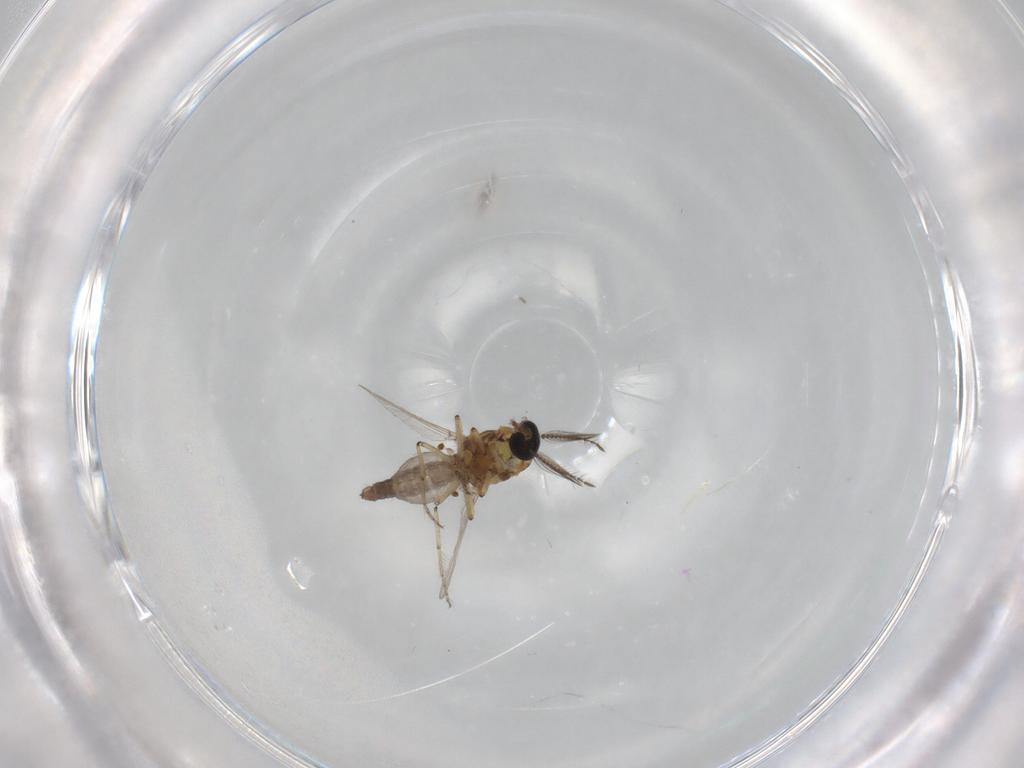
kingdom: Animalia
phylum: Arthropoda
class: Insecta
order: Diptera
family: Ceratopogonidae
